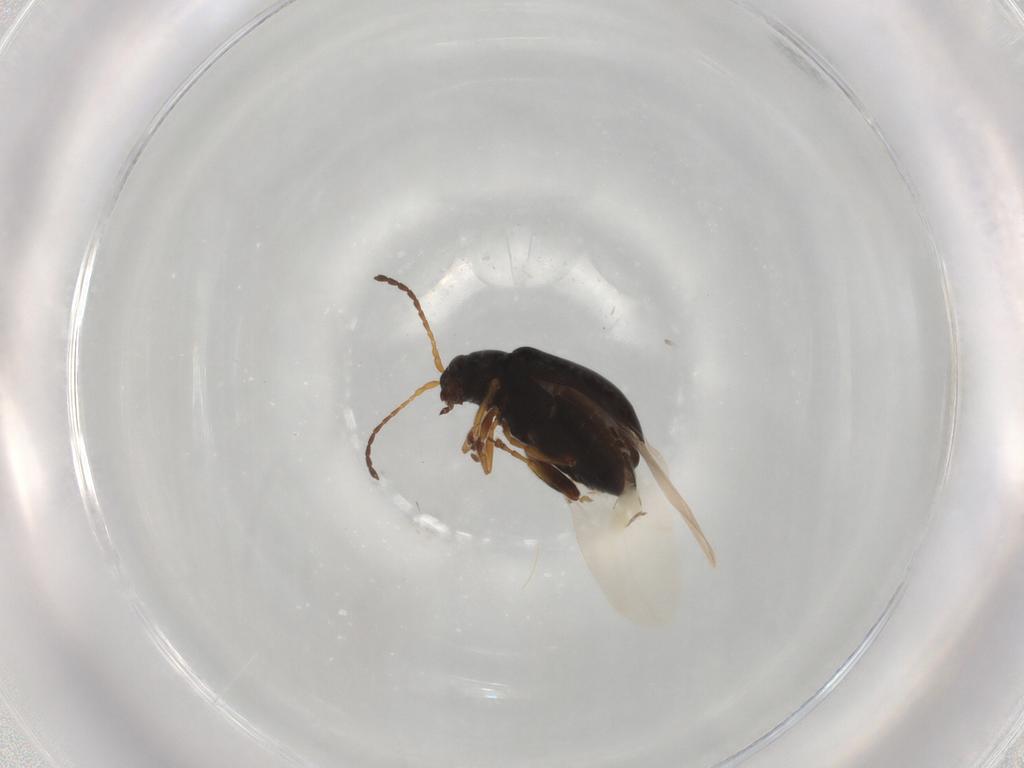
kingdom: Animalia
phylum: Arthropoda
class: Insecta
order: Coleoptera
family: Chrysomelidae
